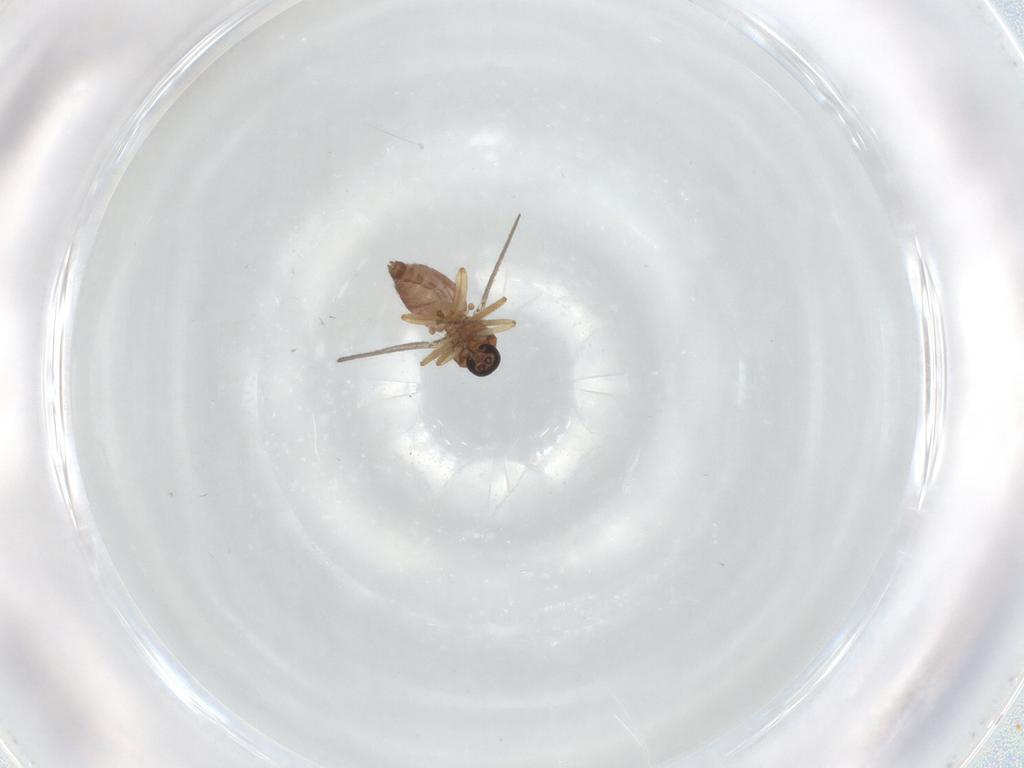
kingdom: Animalia
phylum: Arthropoda
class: Insecta
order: Diptera
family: Ceratopogonidae
